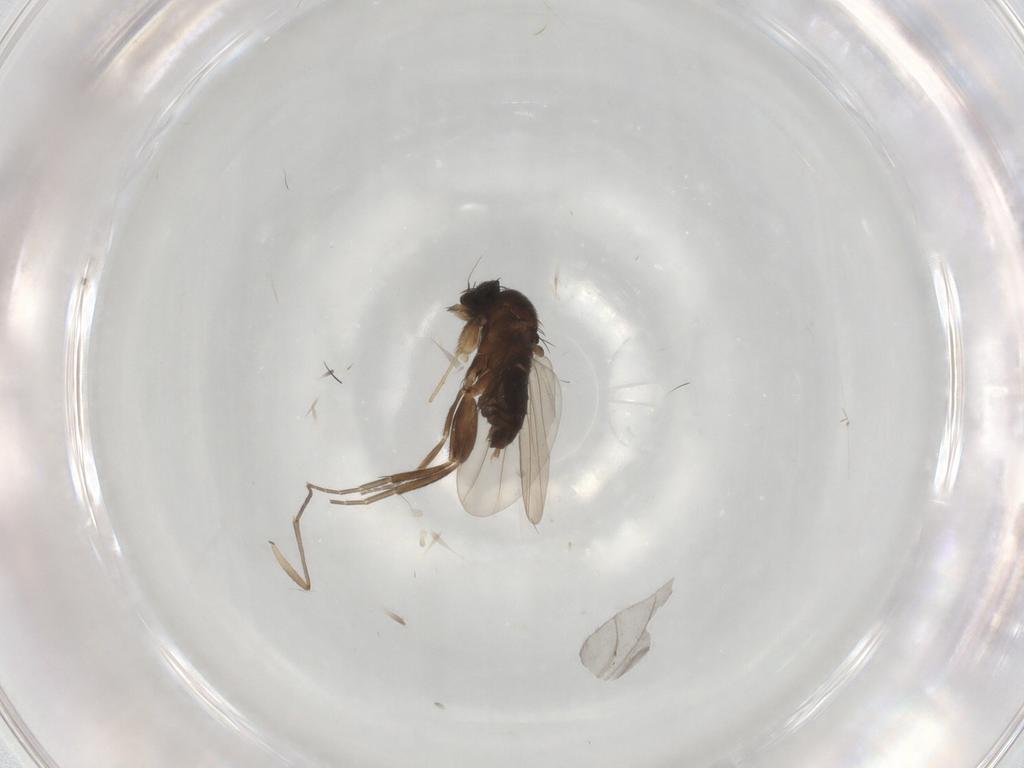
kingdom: Animalia
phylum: Arthropoda
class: Insecta
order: Diptera
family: Phoridae
